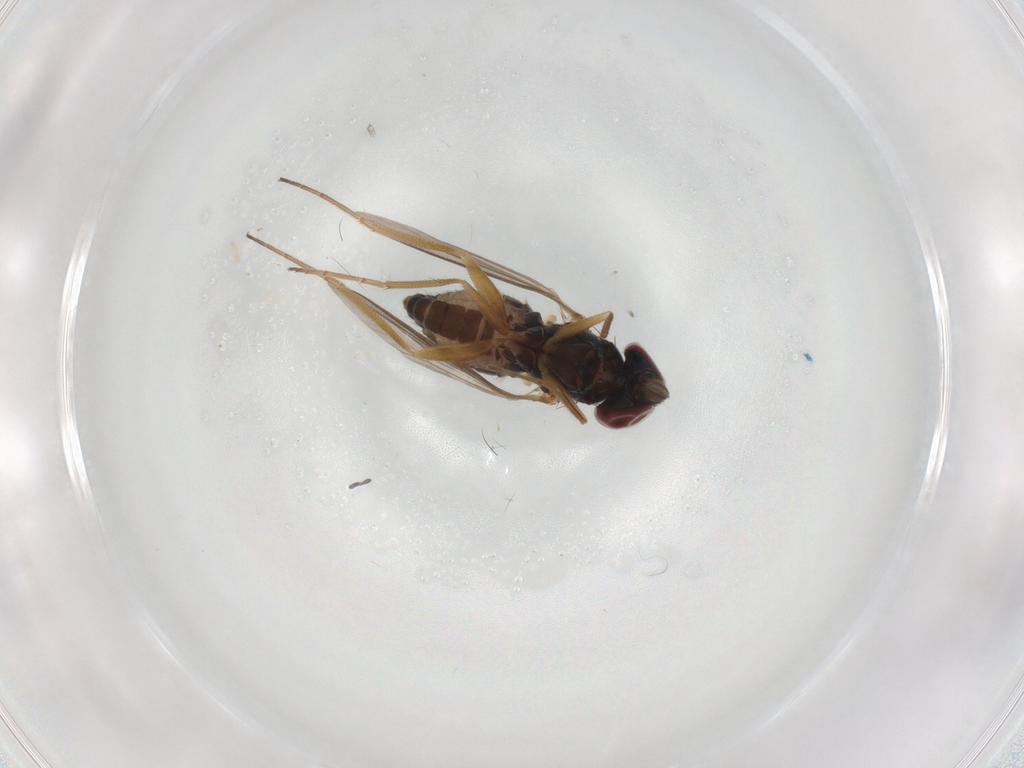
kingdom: Animalia
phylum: Arthropoda
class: Insecta
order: Diptera
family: Dolichopodidae
